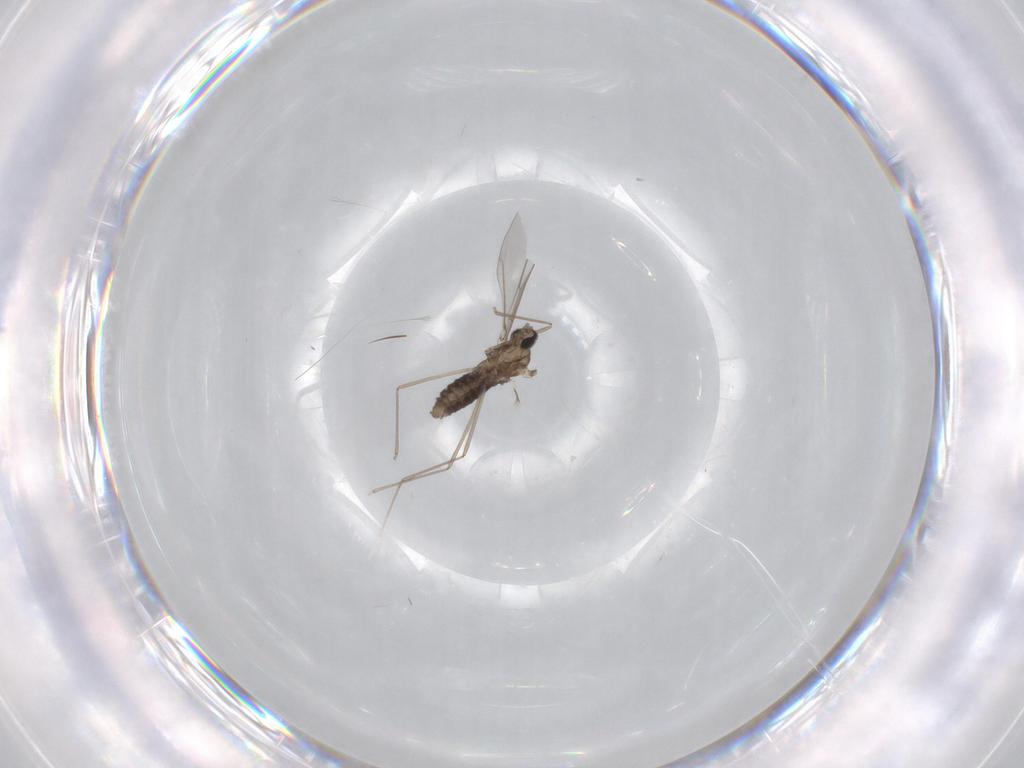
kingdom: Animalia
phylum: Arthropoda
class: Insecta
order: Diptera
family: Cecidomyiidae
